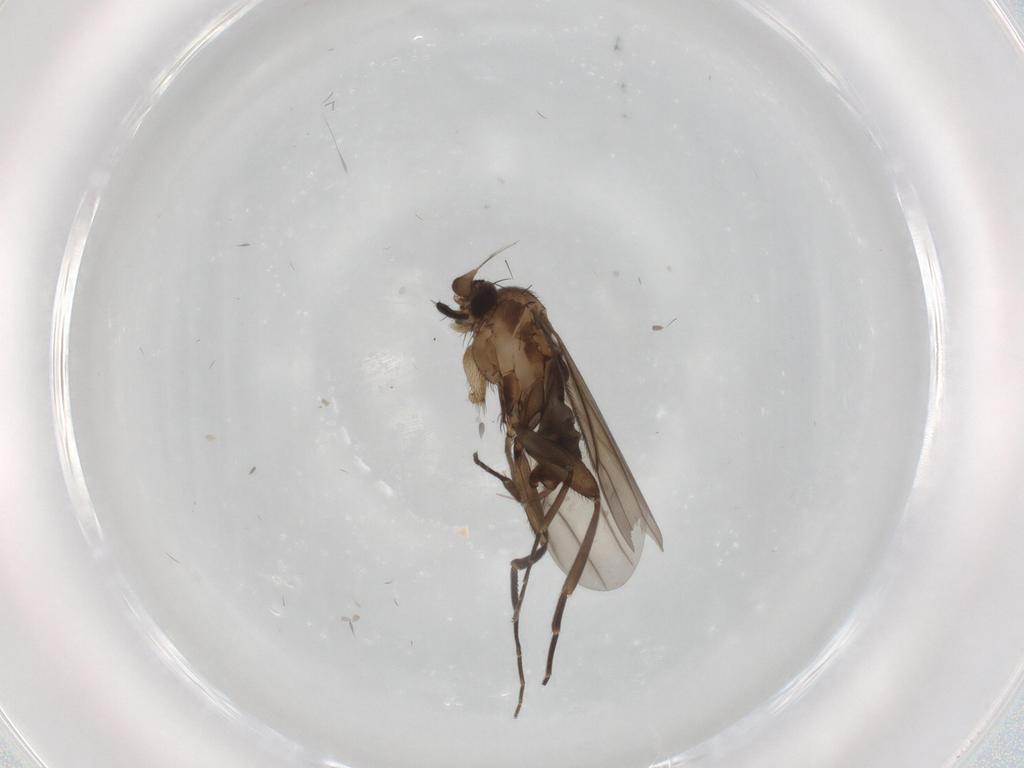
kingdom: Animalia
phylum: Arthropoda
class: Insecta
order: Diptera
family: Phoridae
